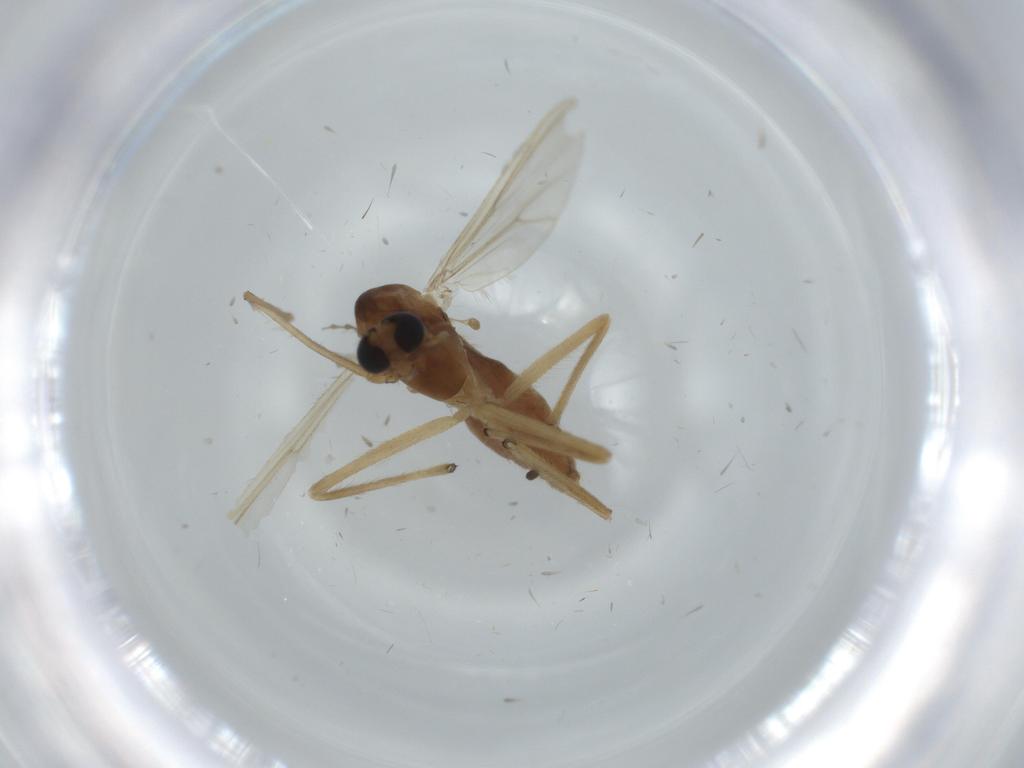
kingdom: Animalia
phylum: Arthropoda
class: Insecta
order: Diptera
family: Chironomidae
